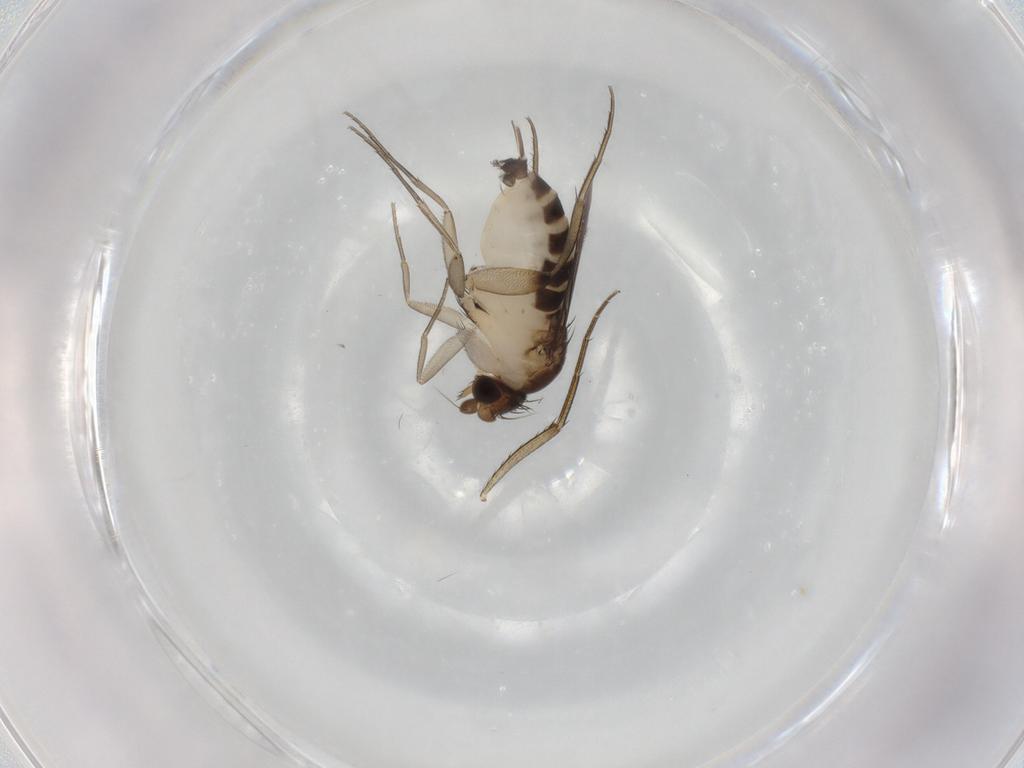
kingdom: Animalia
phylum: Arthropoda
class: Insecta
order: Diptera
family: Phoridae
